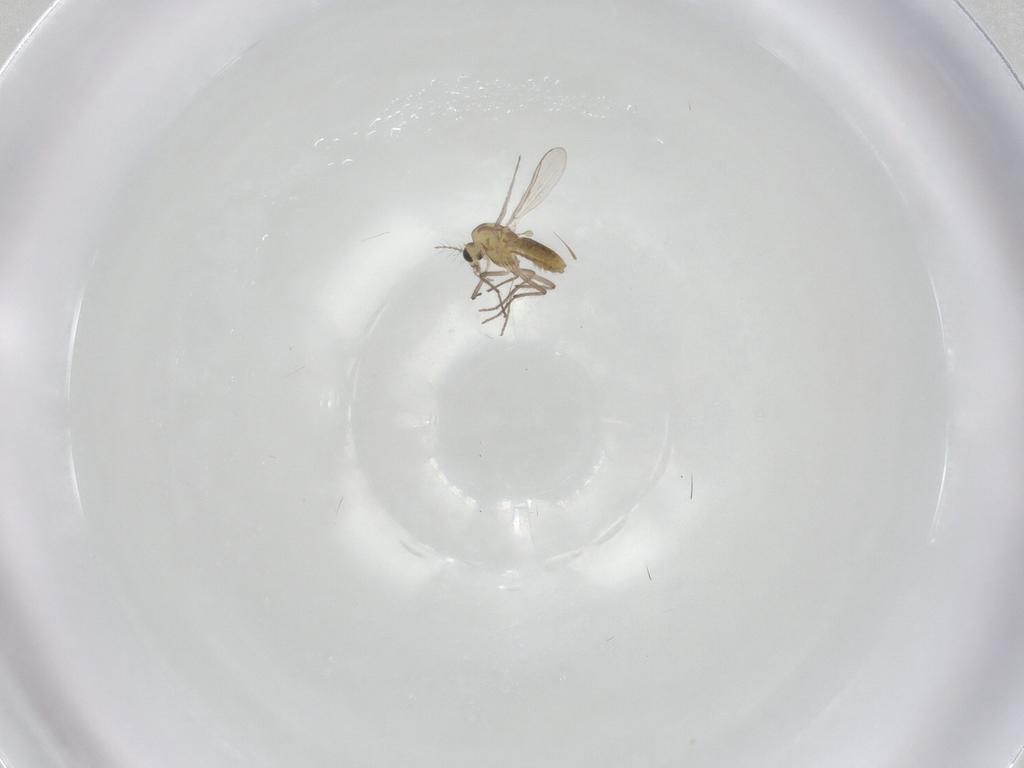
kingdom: Animalia
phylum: Arthropoda
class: Insecta
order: Diptera
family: Chironomidae
